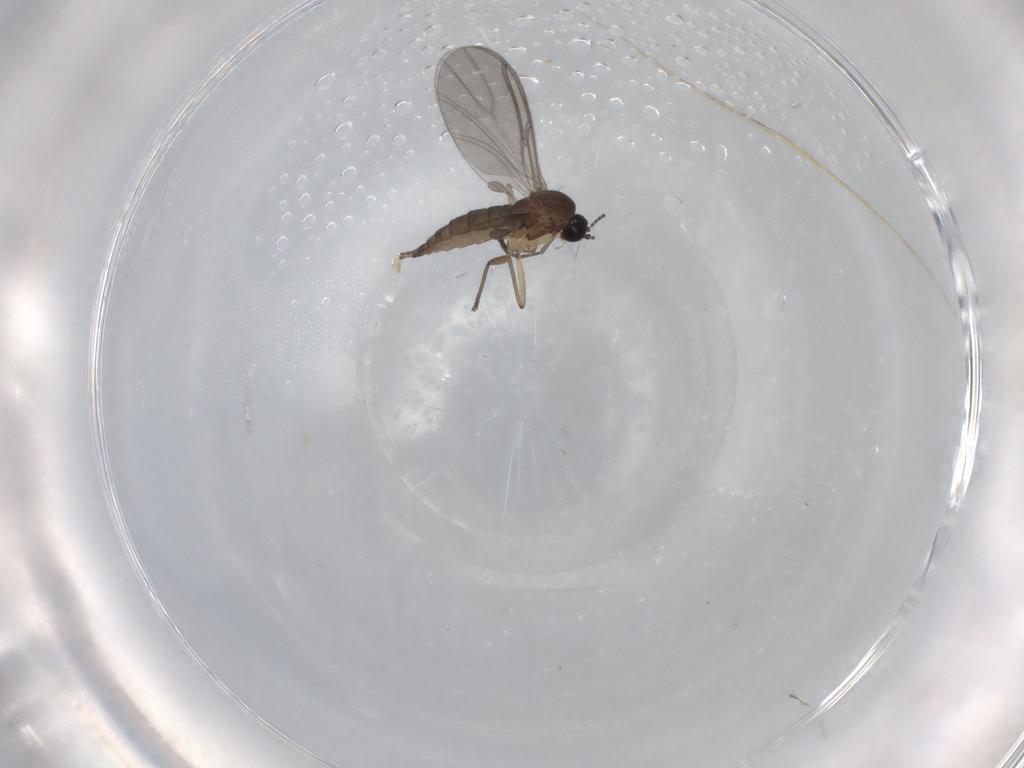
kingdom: Animalia
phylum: Arthropoda
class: Insecta
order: Diptera
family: Sciaridae
